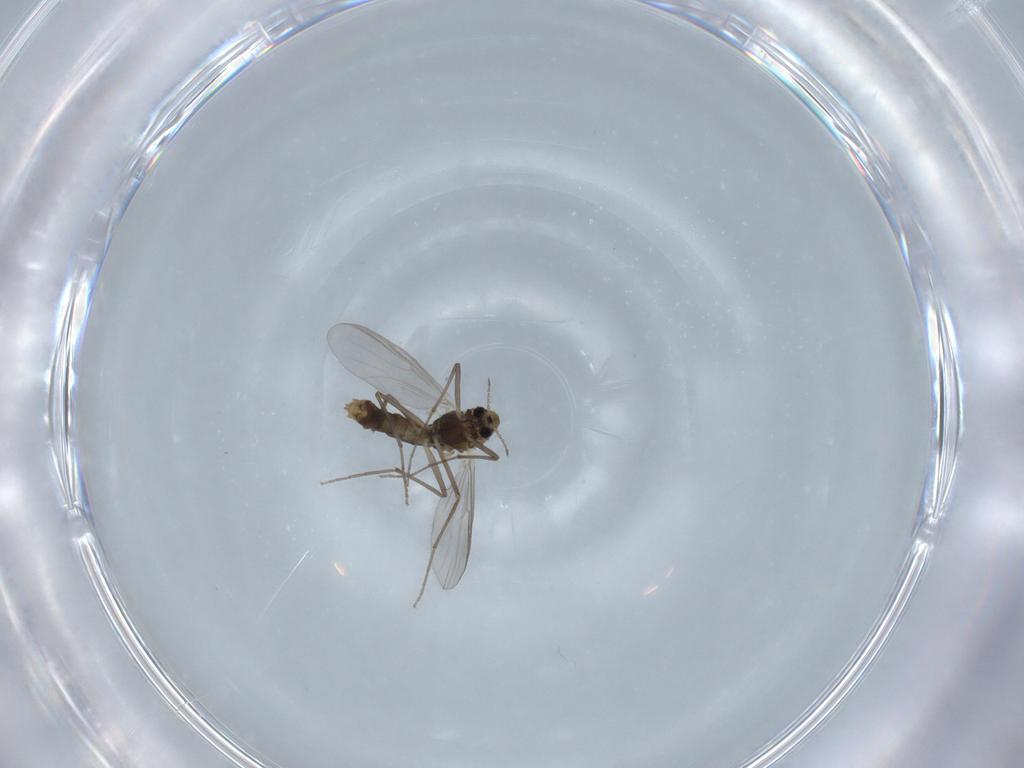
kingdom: Animalia
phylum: Arthropoda
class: Insecta
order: Diptera
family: Chironomidae
